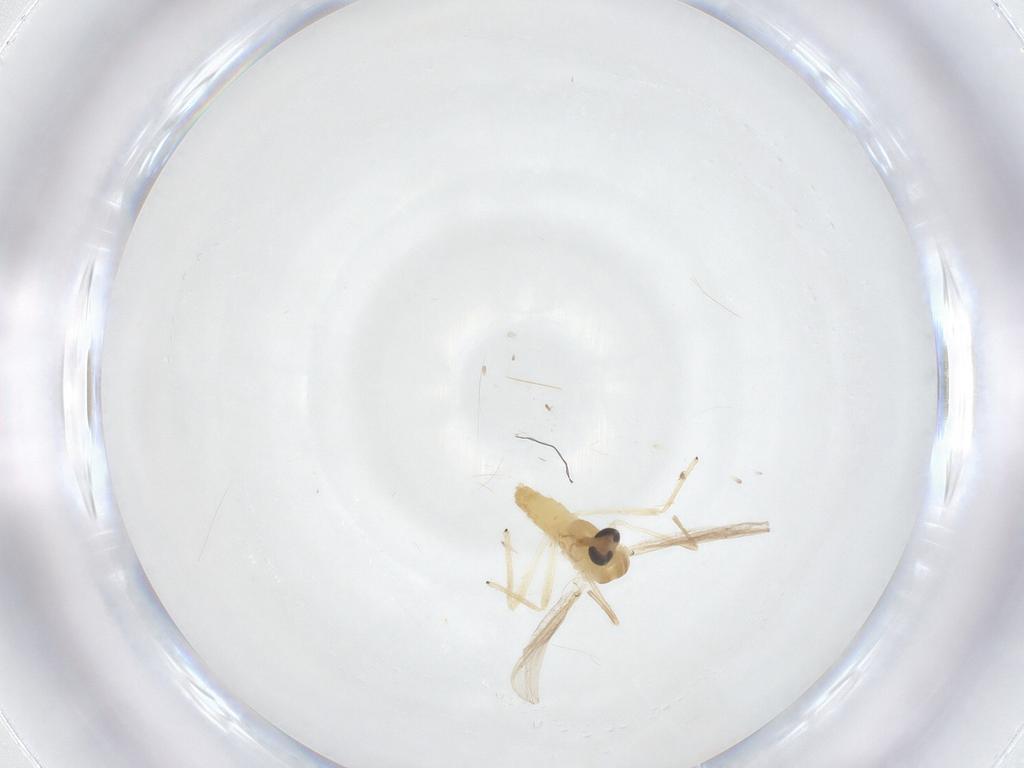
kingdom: Animalia
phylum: Arthropoda
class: Insecta
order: Diptera
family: Chironomidae
